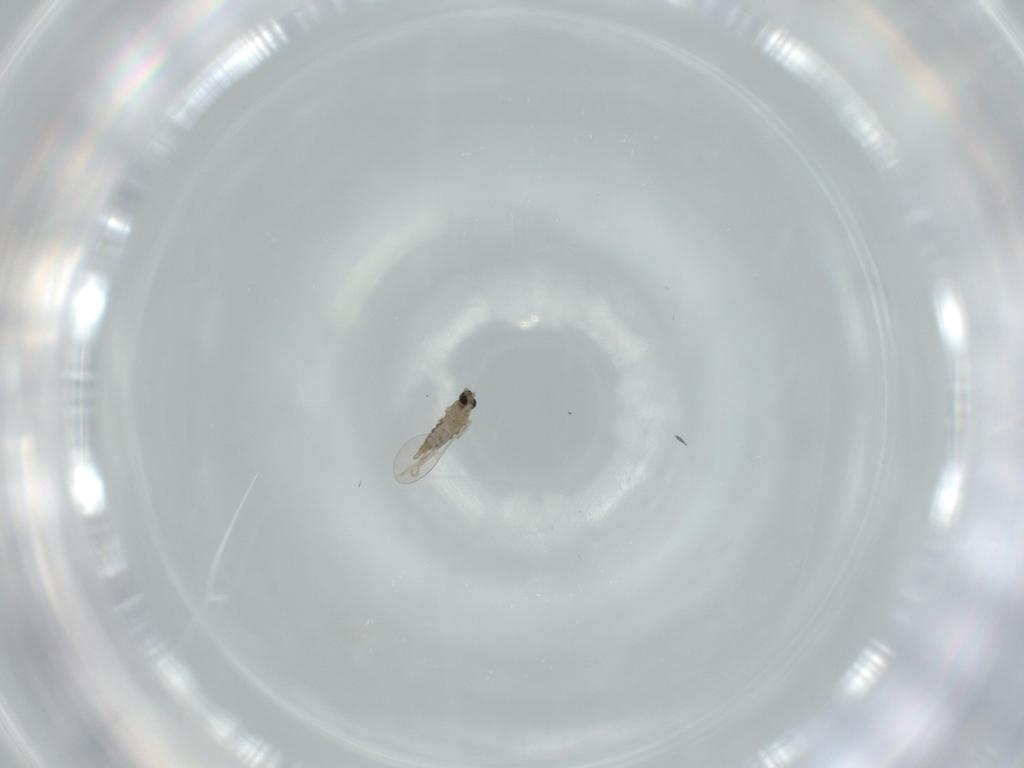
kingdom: Animalia
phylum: Arthropoda
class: Insecta
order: Diptera
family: Cecidomyiidae
